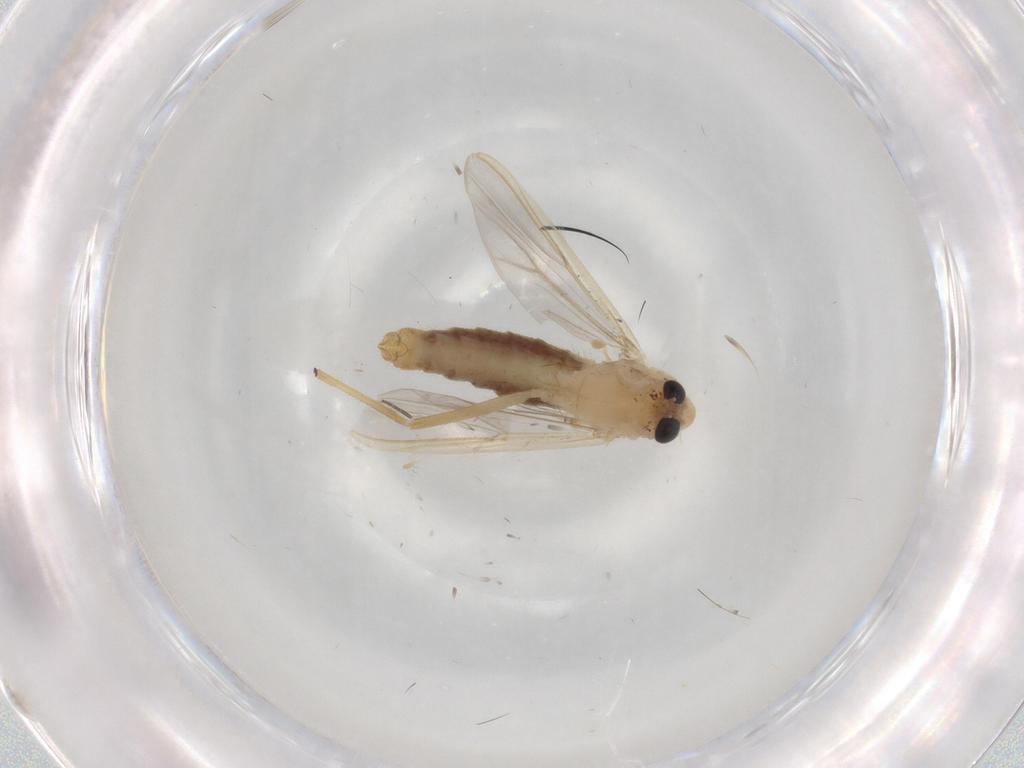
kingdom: Animalia
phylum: Arthropoda
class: Insecta
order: Diptera
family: Chironomidae
